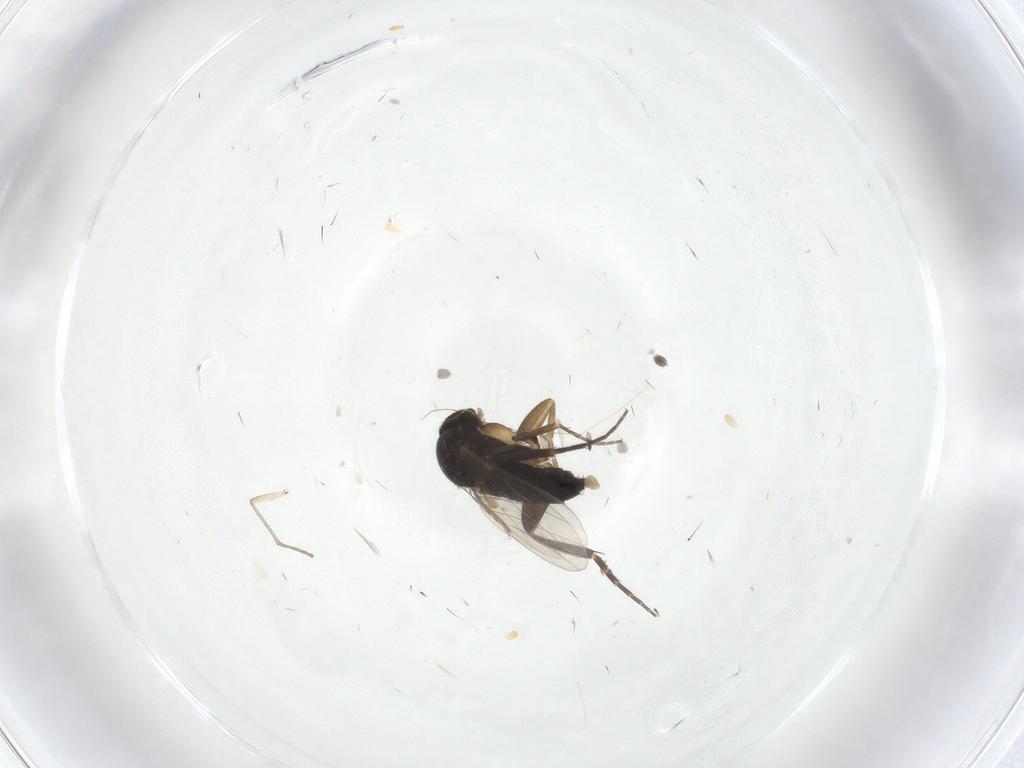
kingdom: Animalia
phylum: Arthropoda
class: Insecta
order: Diptera
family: Phoridae
